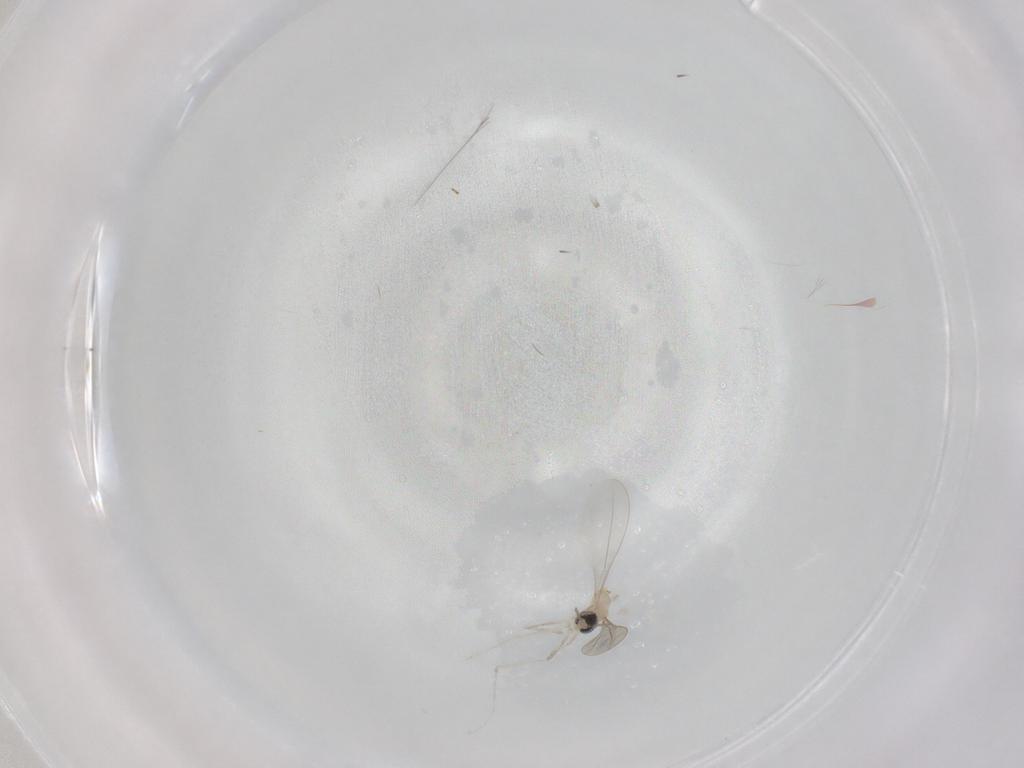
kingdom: Animalia
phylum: Arthropoda
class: Insecta
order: Diptera
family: Cecidomyiidae
